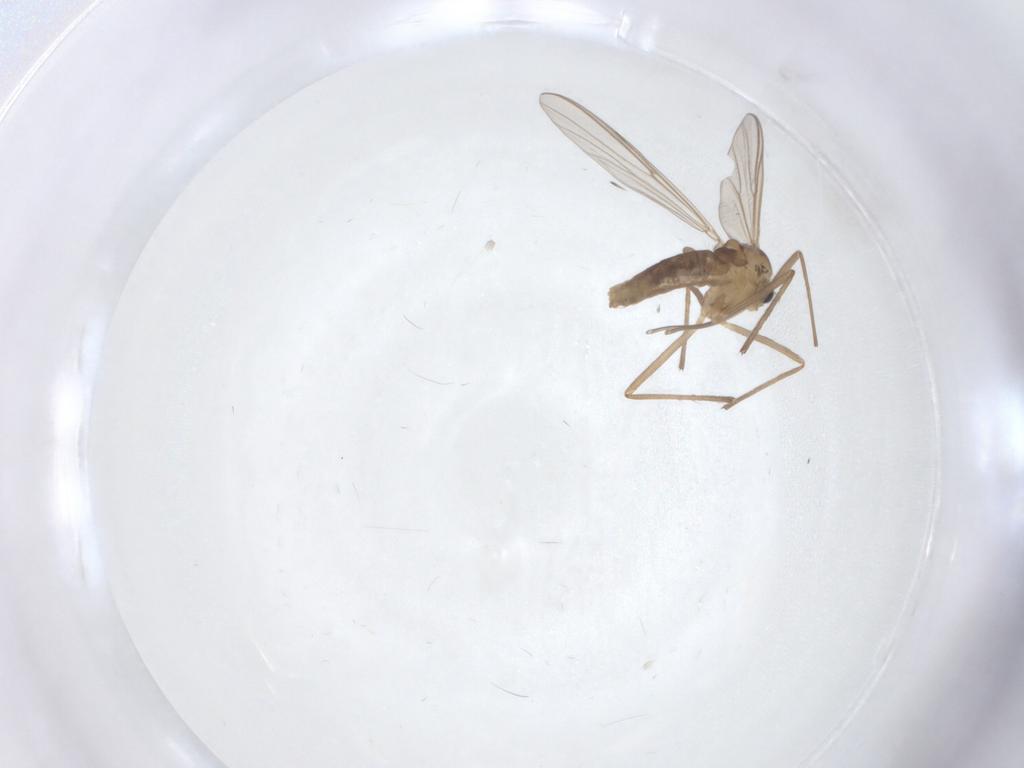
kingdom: Animalia
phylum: Arthropoda
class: Insecta
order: Diptera
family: Chironomidae
